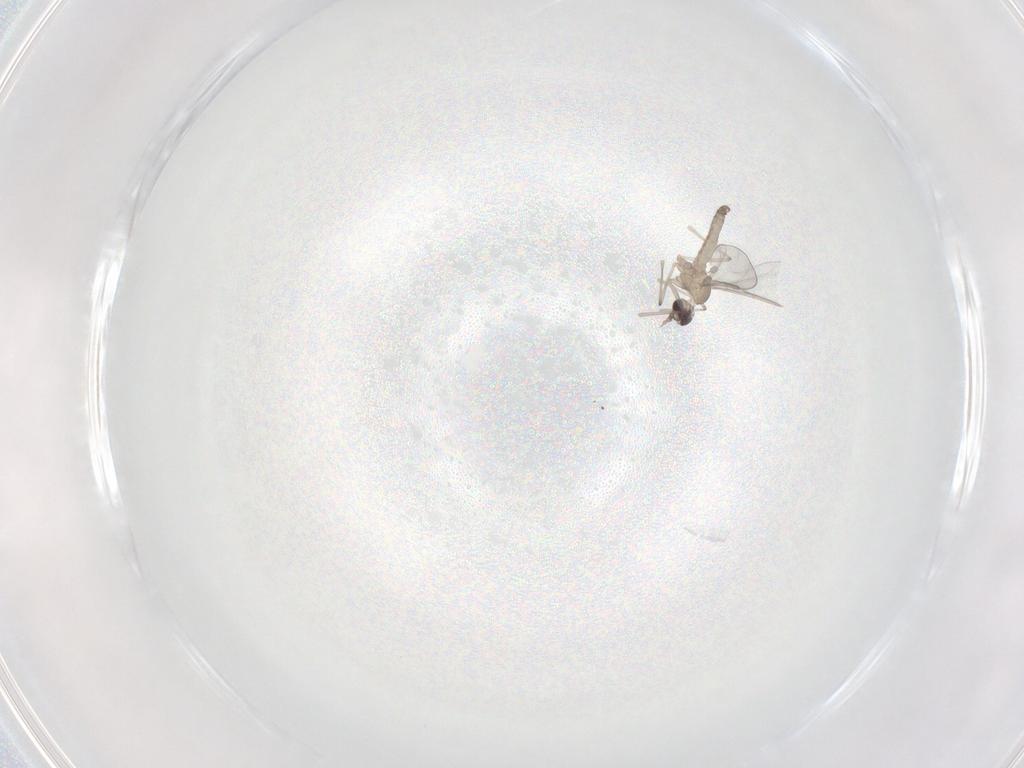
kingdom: Animalia
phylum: Arthropoda
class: Insecta
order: Diptera
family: Cecidomyiidae
